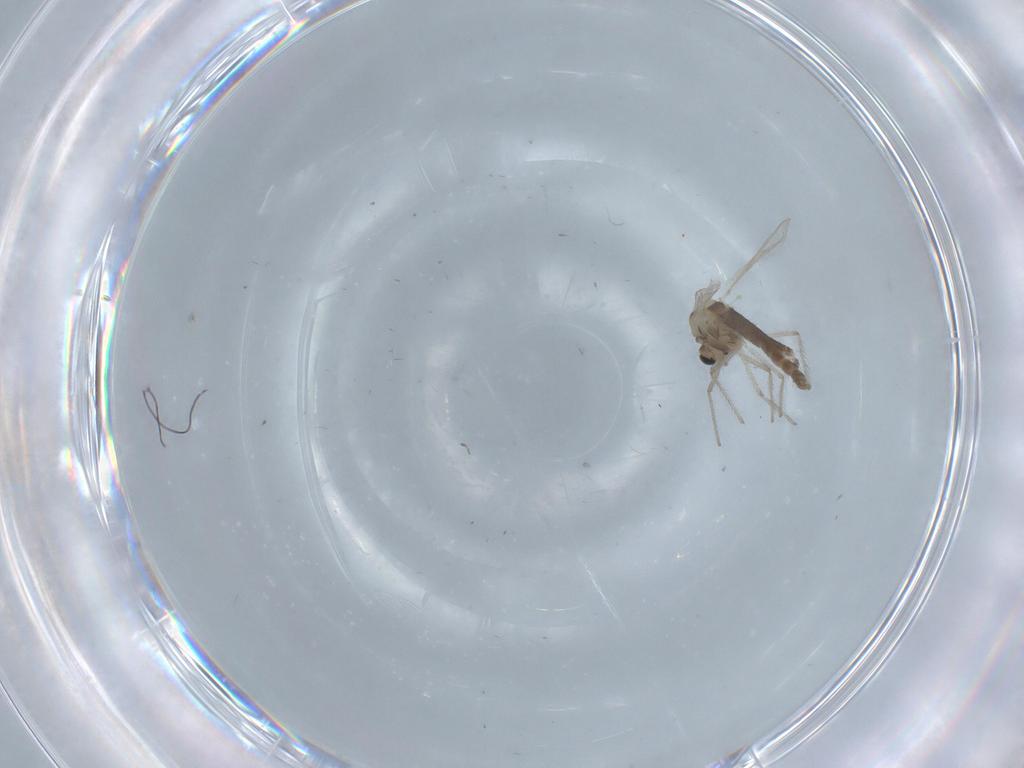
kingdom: Animalia
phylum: Arthropoda
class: Insecta
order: Diptera
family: Chironomidae
